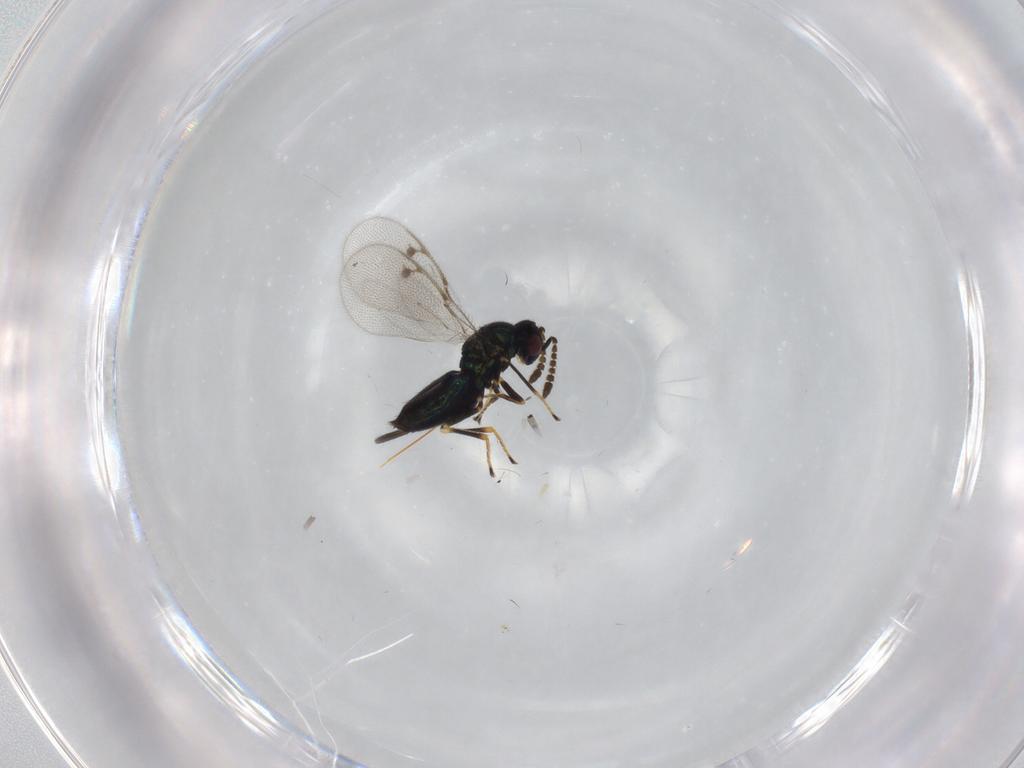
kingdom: Animalia
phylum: Arthropoda
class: Insecta
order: Hymenoptera
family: Pirenidae
